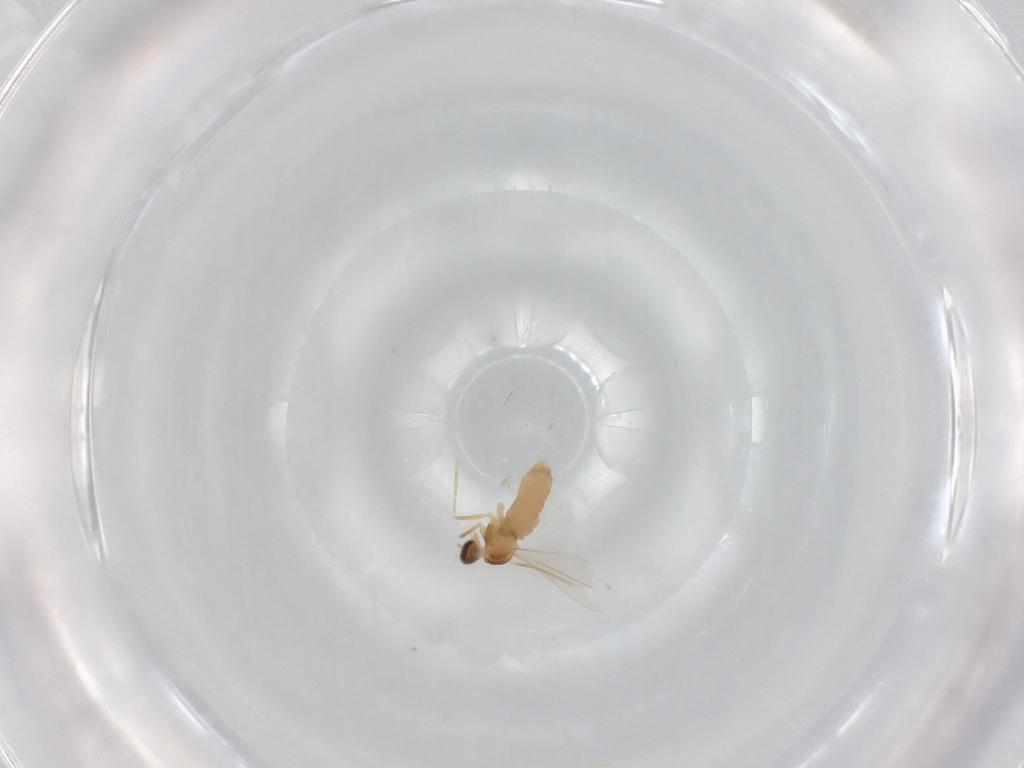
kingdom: Animalia
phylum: Arthropoda
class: Insecta
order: Diptera
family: Cecidomyiidae
